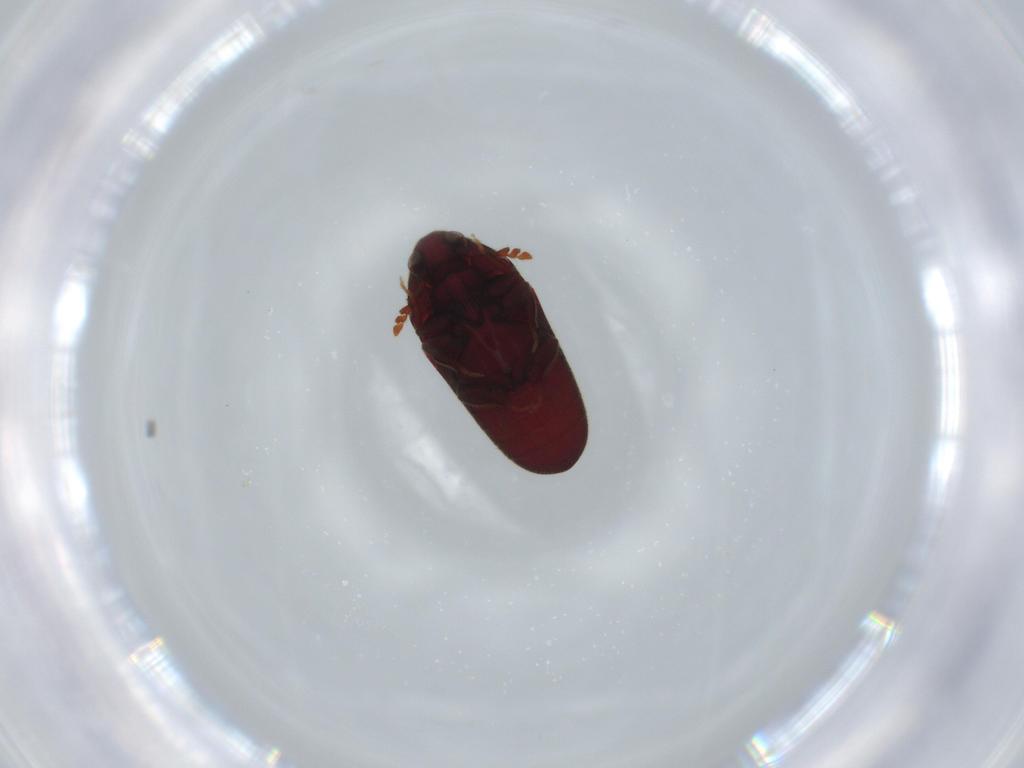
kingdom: Animalia
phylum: Arthropoda
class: Insecta
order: Coleoptera
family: Throscidae
